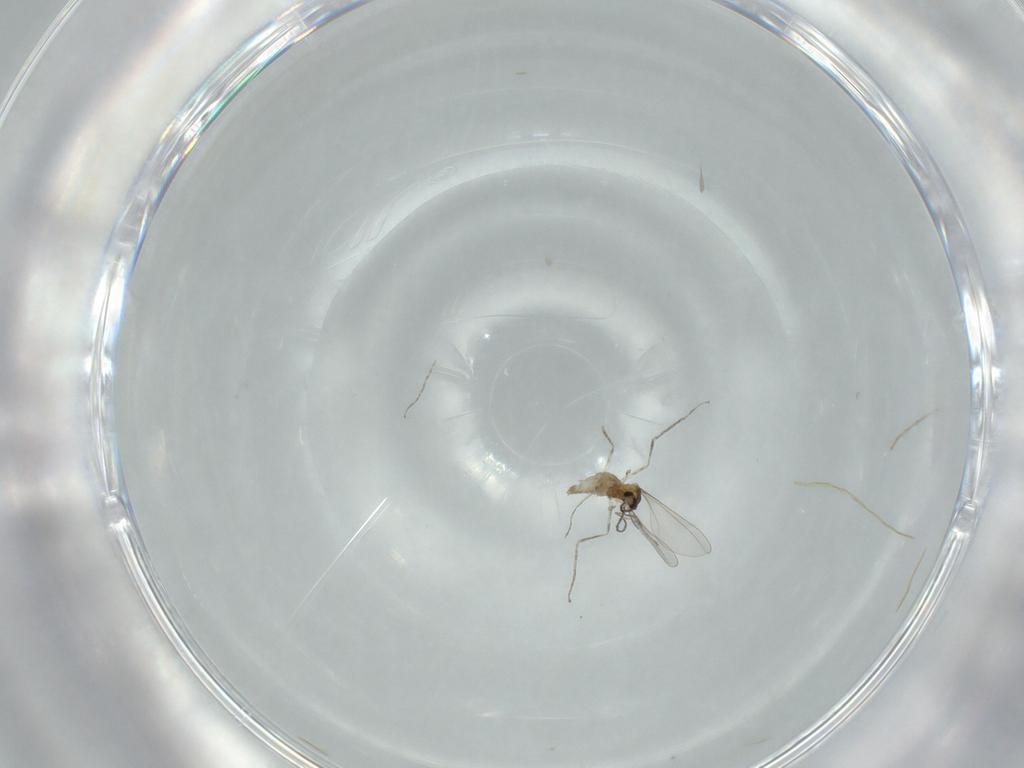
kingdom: Animalia
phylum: Arthropoda
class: Insecta
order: Diptera
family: Cecidomyiidae
